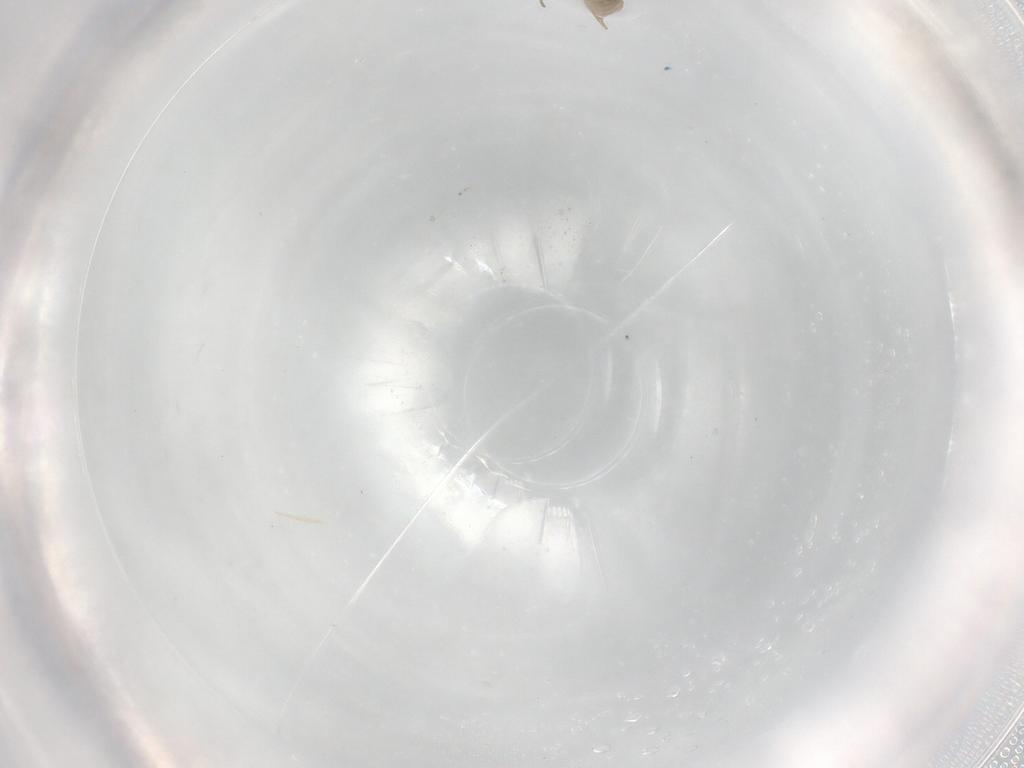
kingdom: Animalia
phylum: Arthropoda
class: Insecta
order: Diptera
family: Cecidomyiidae
